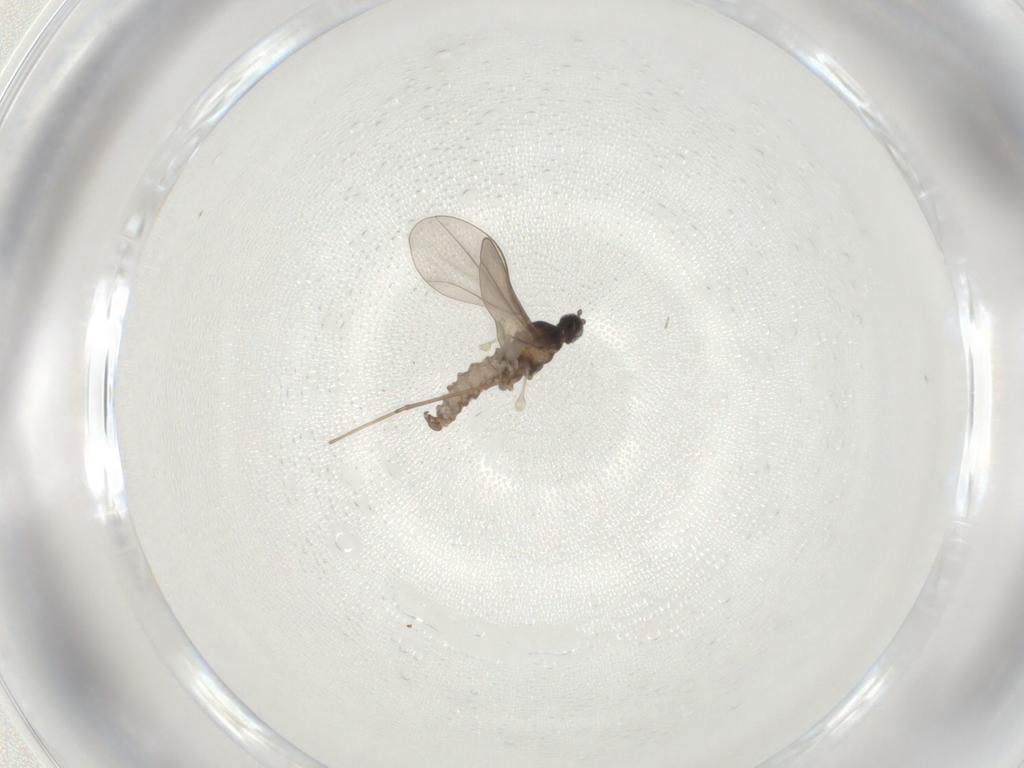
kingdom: Animalia
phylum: Arthropoda
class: Insecta
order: Diptera
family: Cecidomyiidae
